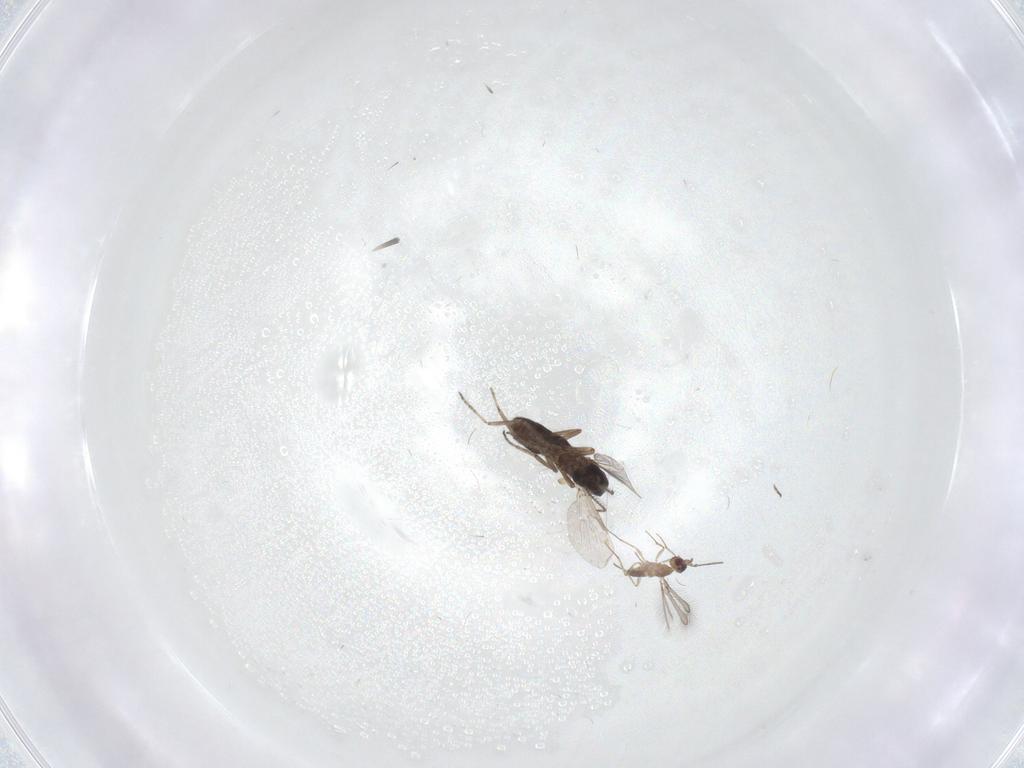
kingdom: Animalia
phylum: Arthropoda
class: Insecta
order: Diptera
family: Ceratopogonidae
